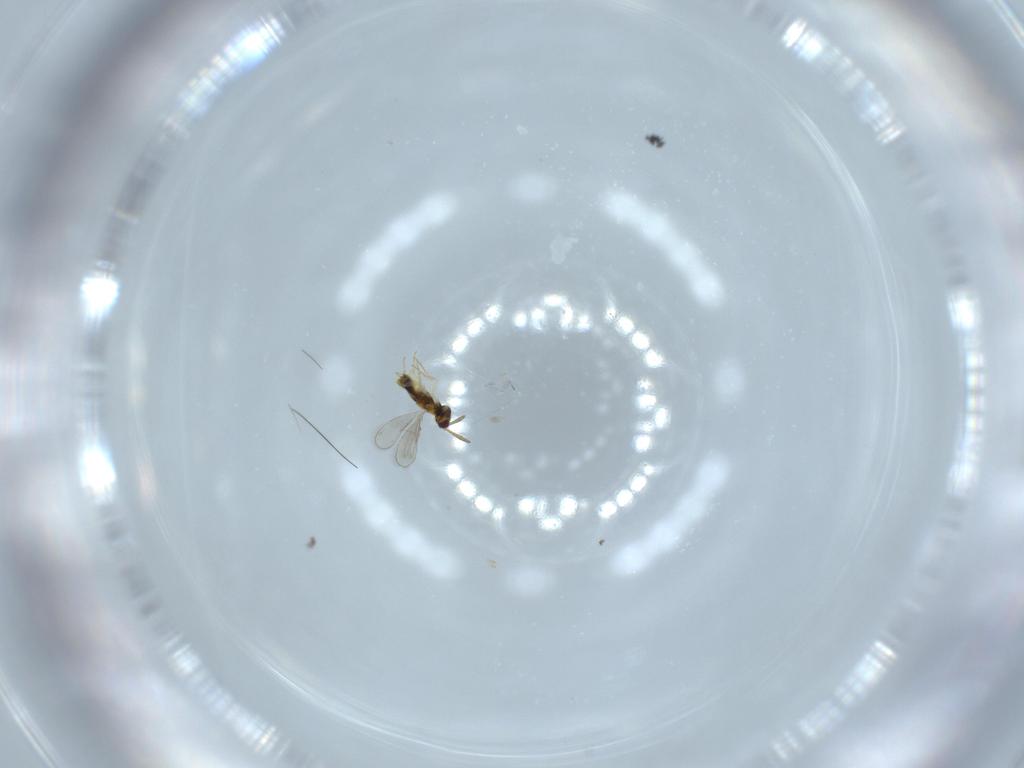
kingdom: Animalia
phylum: Arthropoda
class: Insecta
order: Hymenoptera
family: Aphelinidae
